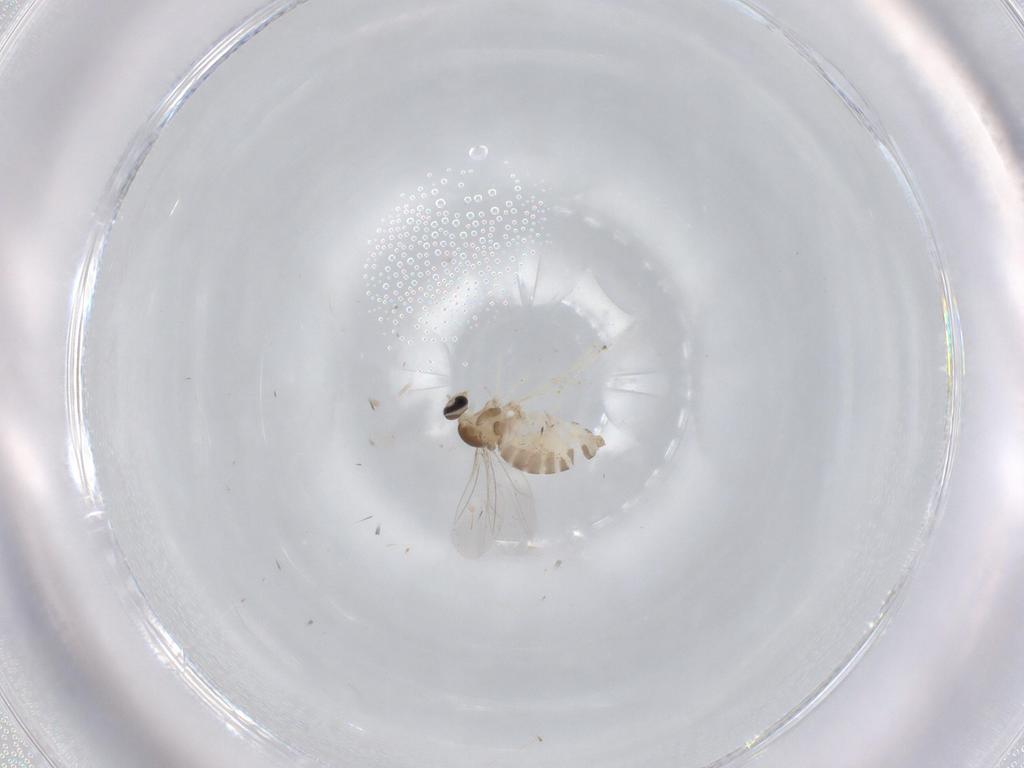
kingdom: Animalia
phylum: Arthropoda
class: Insecta
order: Diptera
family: Cecidomyiidae
